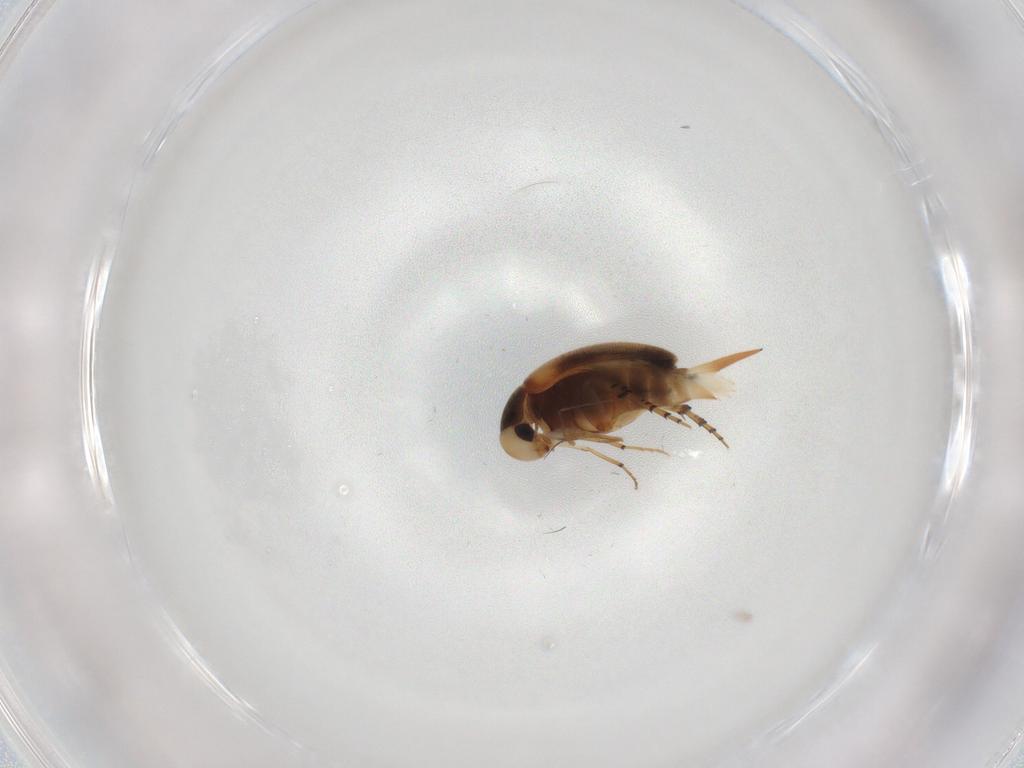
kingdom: Animalia
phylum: Arthropoda
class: Insecta
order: Coleoptera
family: Mordellidae
